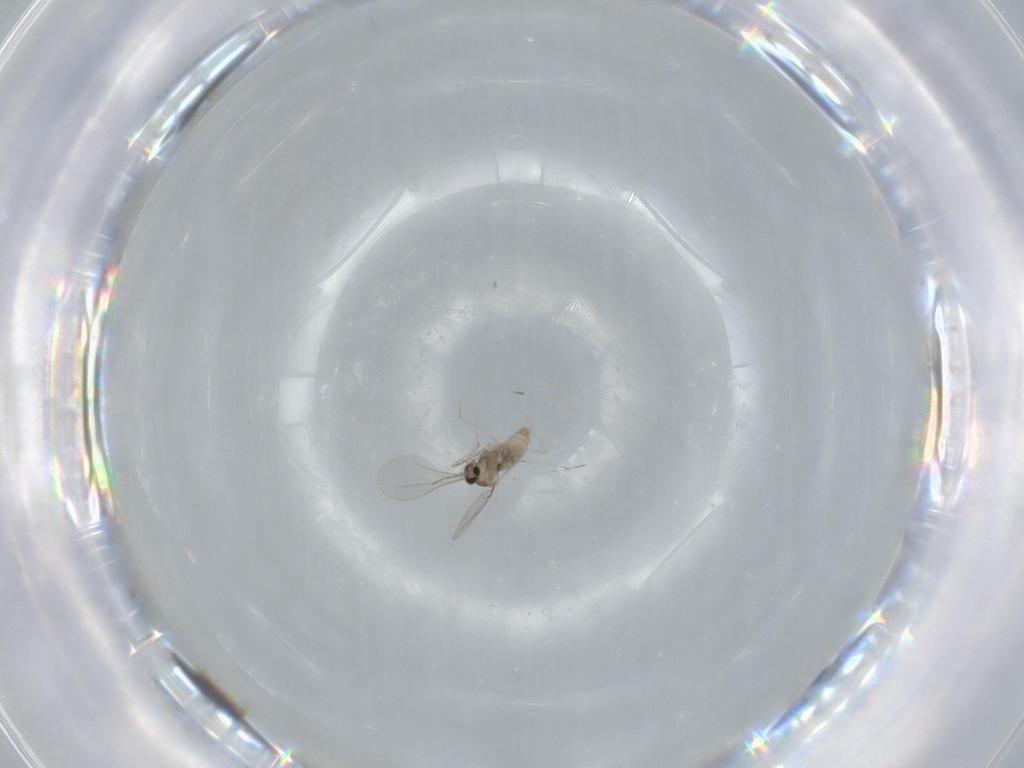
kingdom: Animalia
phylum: Arthropoda
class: Insecta
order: Diptera
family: Cecidomyiidae
